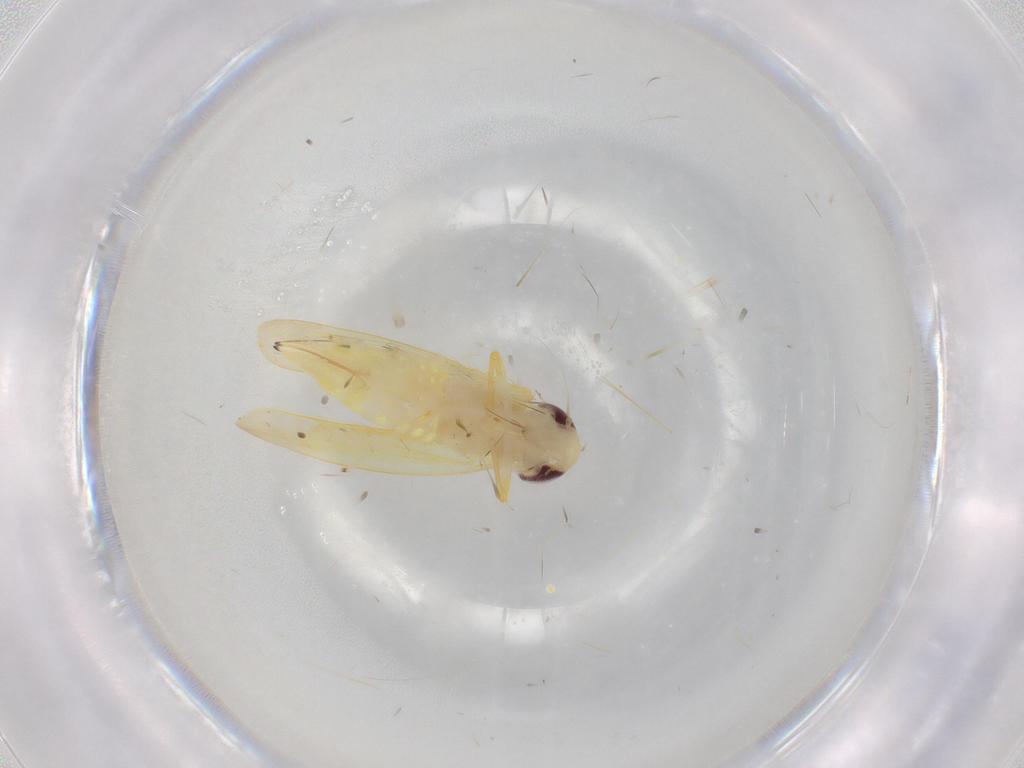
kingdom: Animalia
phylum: Arthropoda
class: Insecta
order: Hemiptera
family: Cicadellidae
